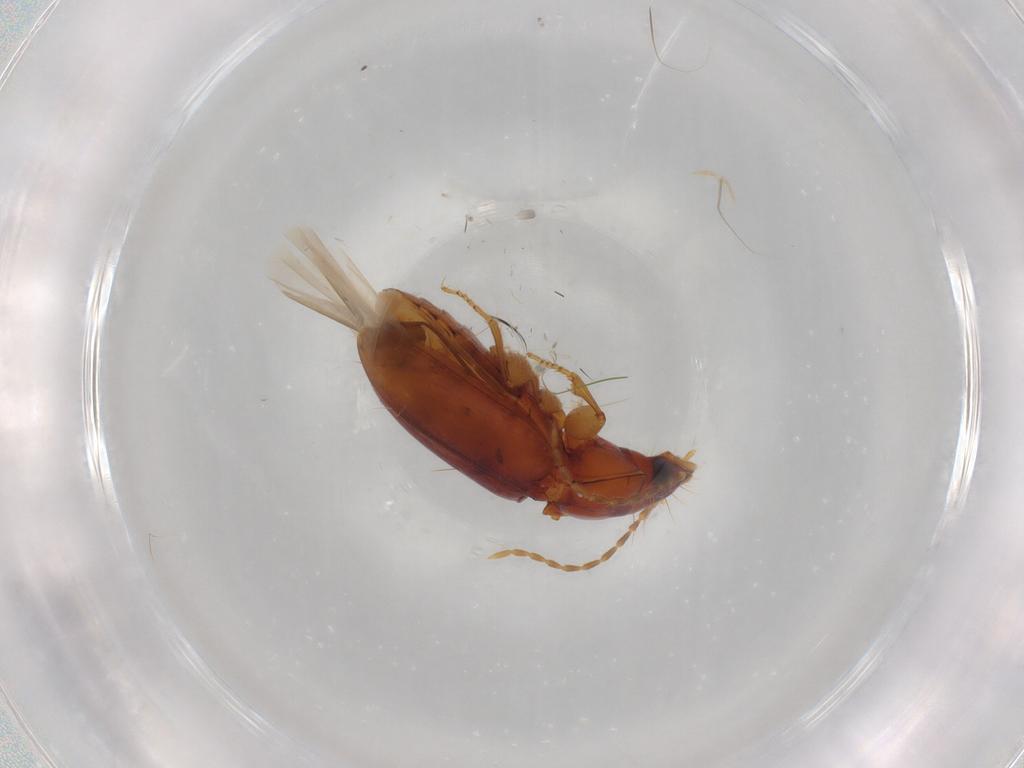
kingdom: Animalia
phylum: Arthropoda
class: Insecta
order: Coleoptera
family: Carabidae
